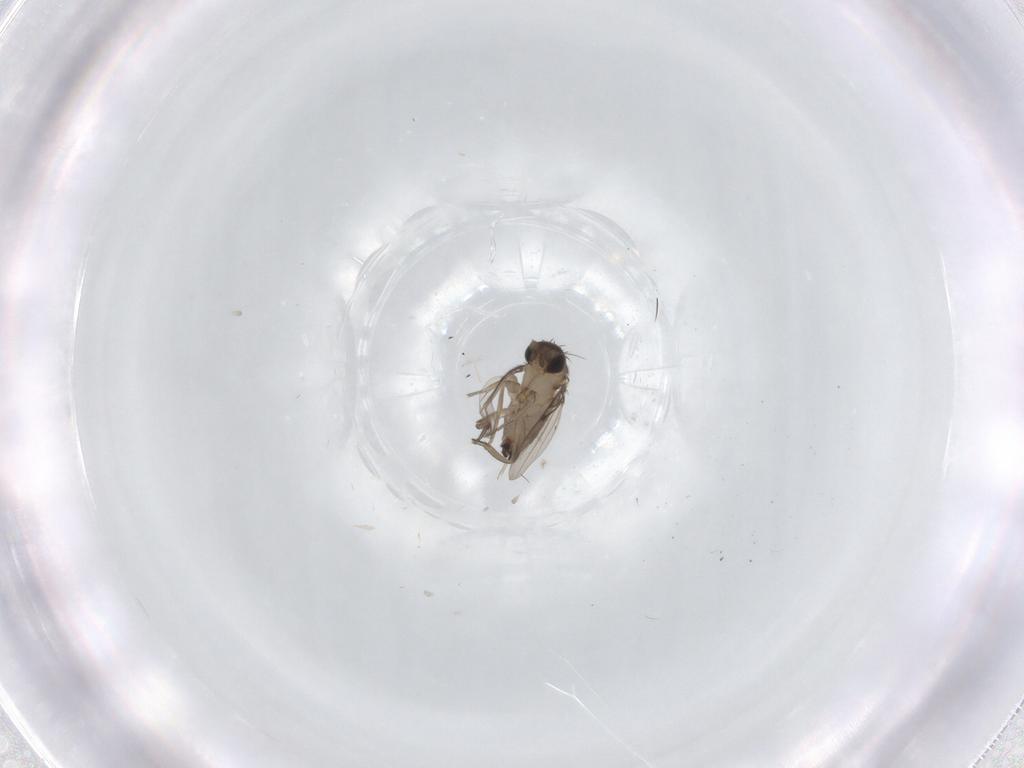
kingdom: Animalia
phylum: Arthropoda
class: Insecta
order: Diptera
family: Phoridae
